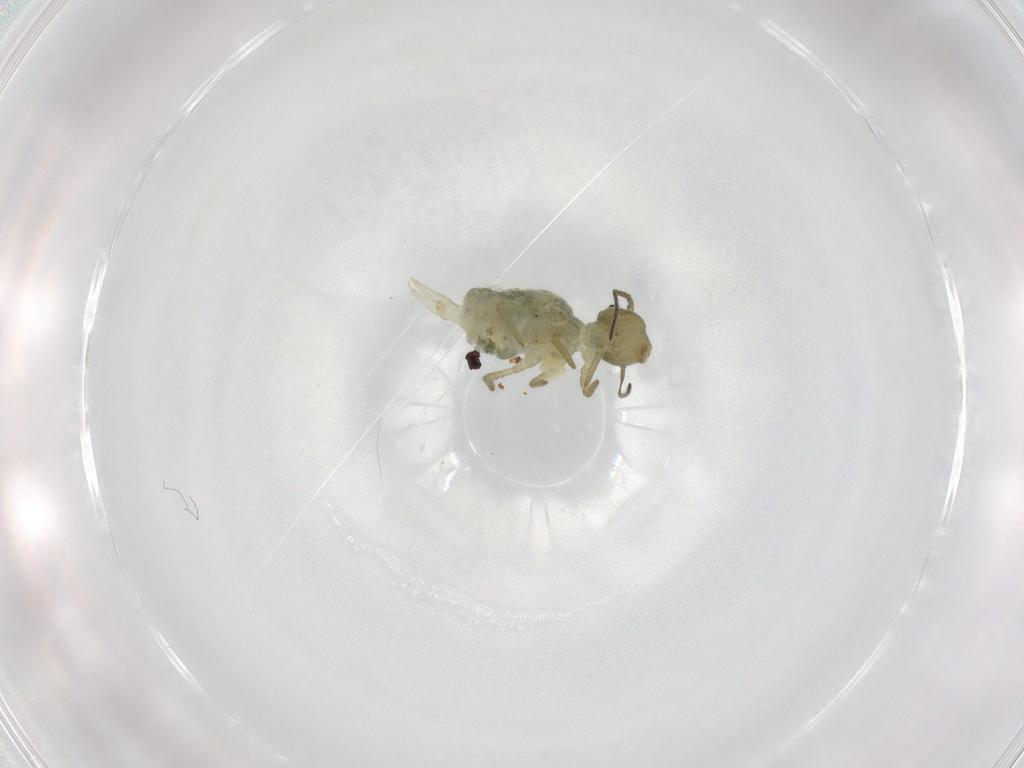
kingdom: Animalia
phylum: Arthropoda
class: Collembola
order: Symphypleona
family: Sminthuridae
